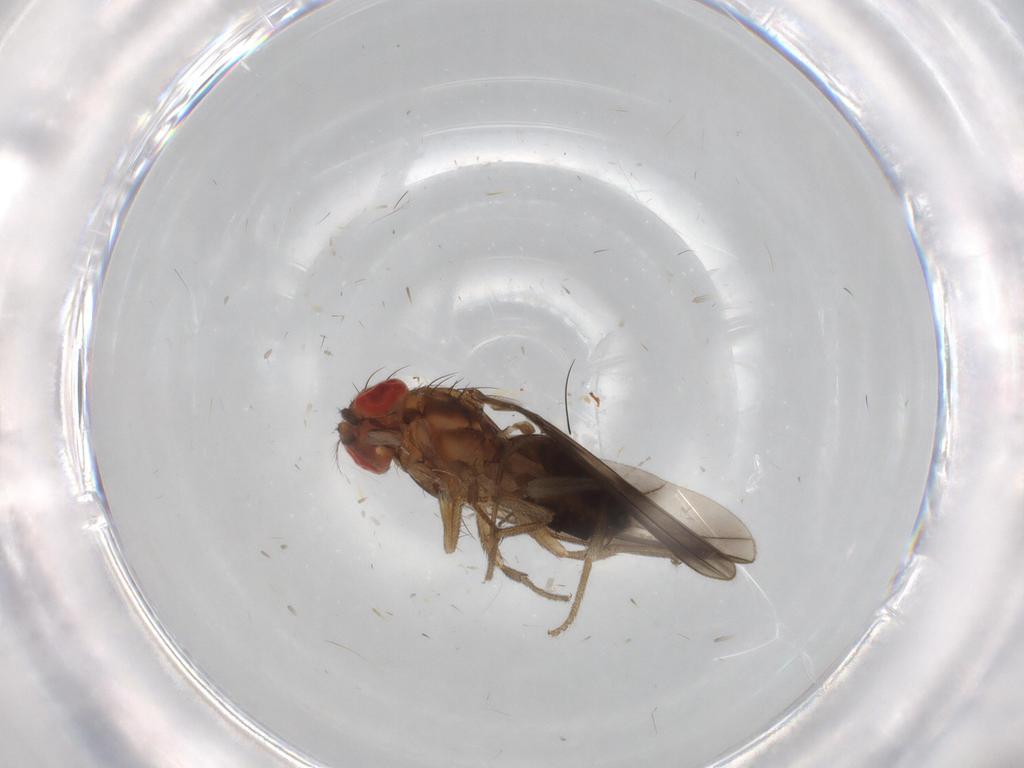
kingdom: Animalia
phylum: Arthropoda
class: Insecta
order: Diptera
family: Drosophilidae
